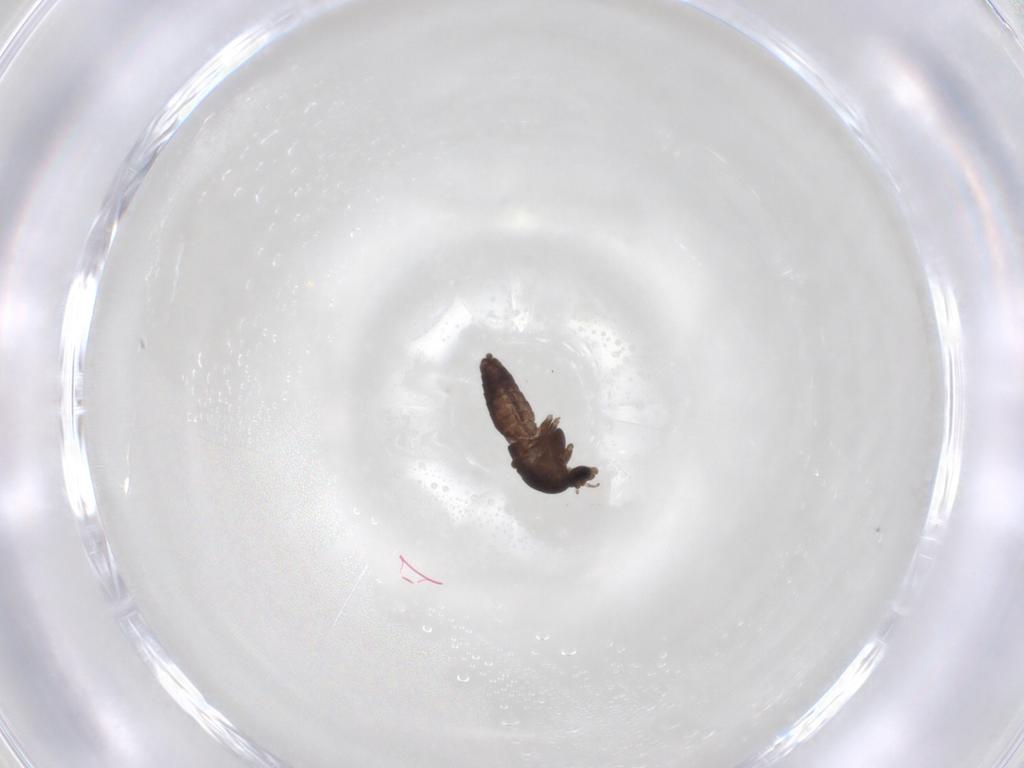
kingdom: Animalia
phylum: Arthropoda
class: Insecta
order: Diptera
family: Chironomidae
